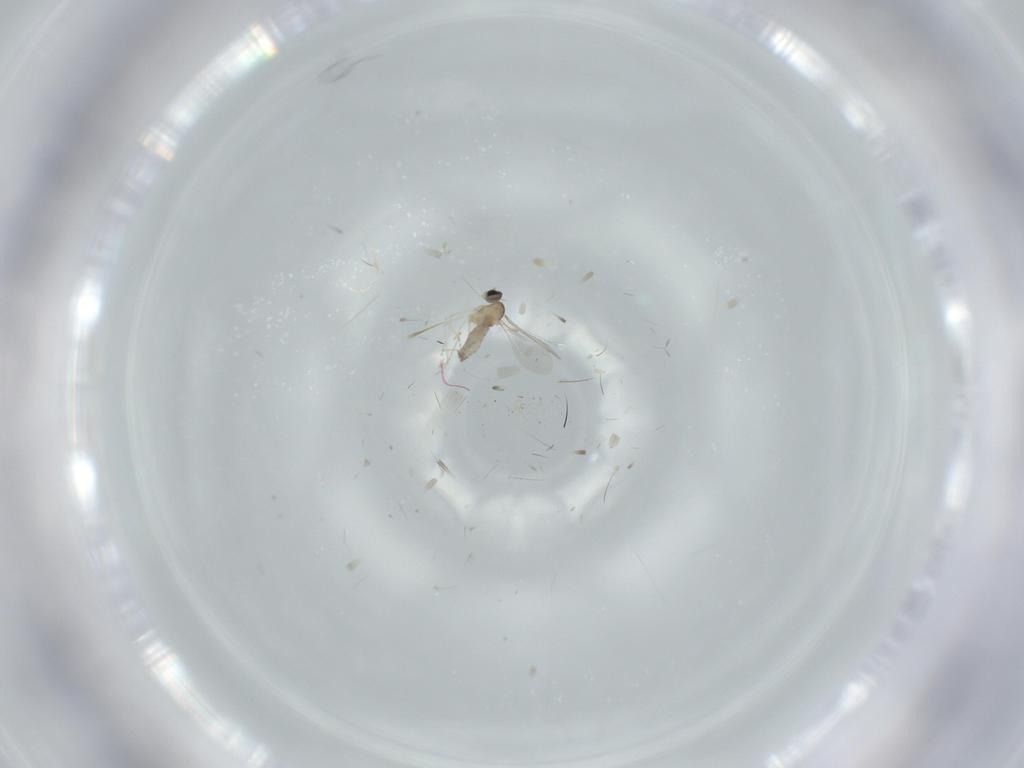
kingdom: Animalia
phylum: Arthropoda
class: Insecta
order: Diptera
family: Cecidomyiidae
